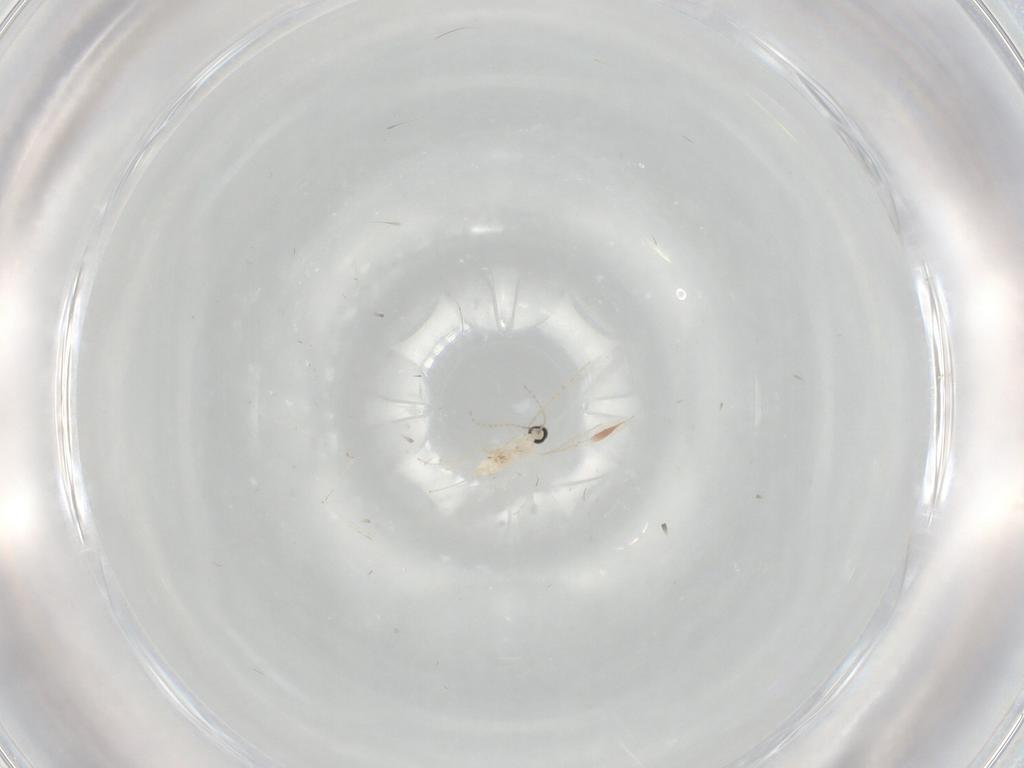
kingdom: Animalia
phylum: Arthropoda
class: Insecta
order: Diptera
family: Cecidomyiidae
